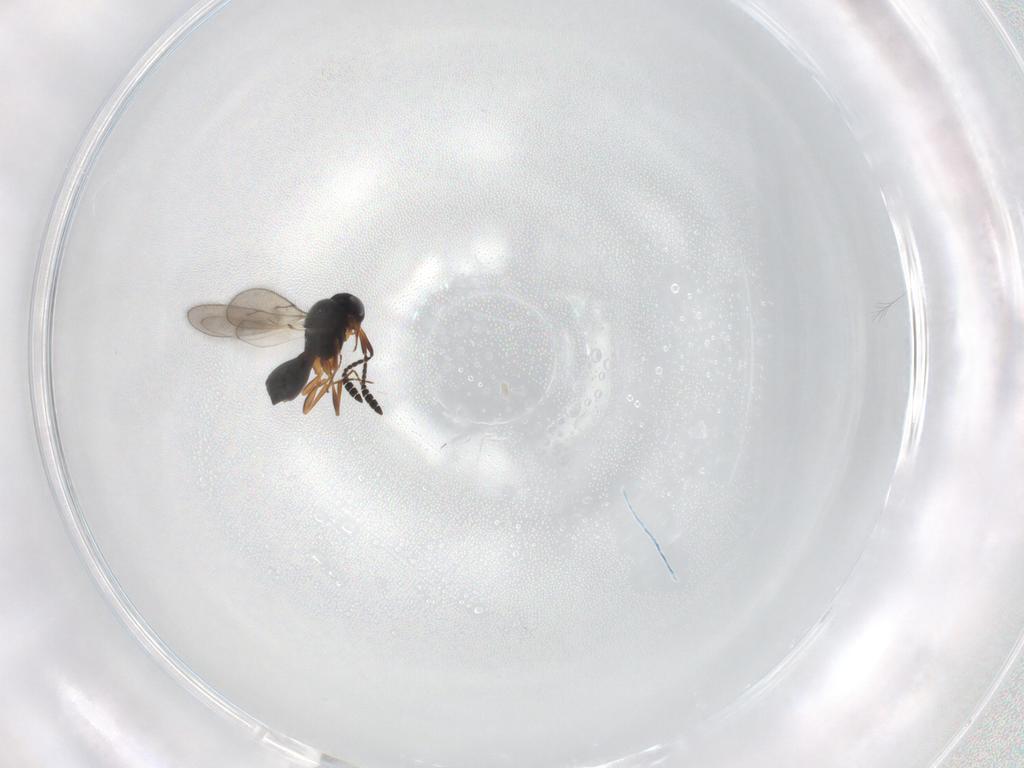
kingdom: Animalia
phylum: Arthropoda
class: Insecta
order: Hymenoptera
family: Scelionidae
